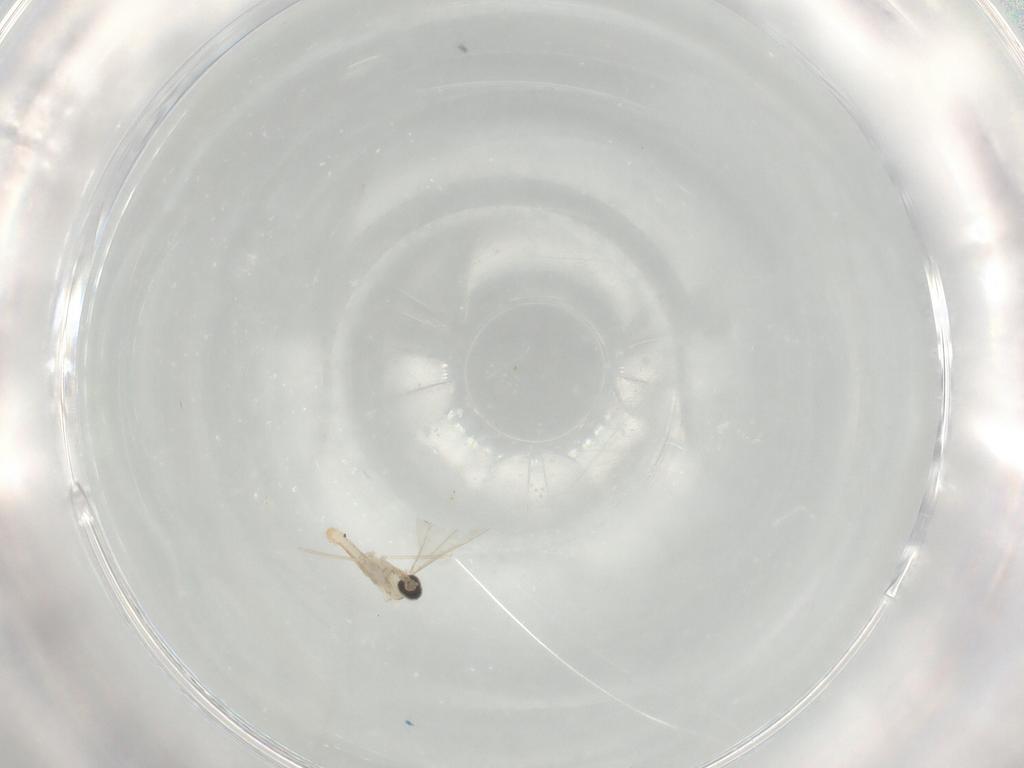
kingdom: Animalia
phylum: Arthropoda
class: Insecta
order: Diptera
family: Cecidomyiidae
